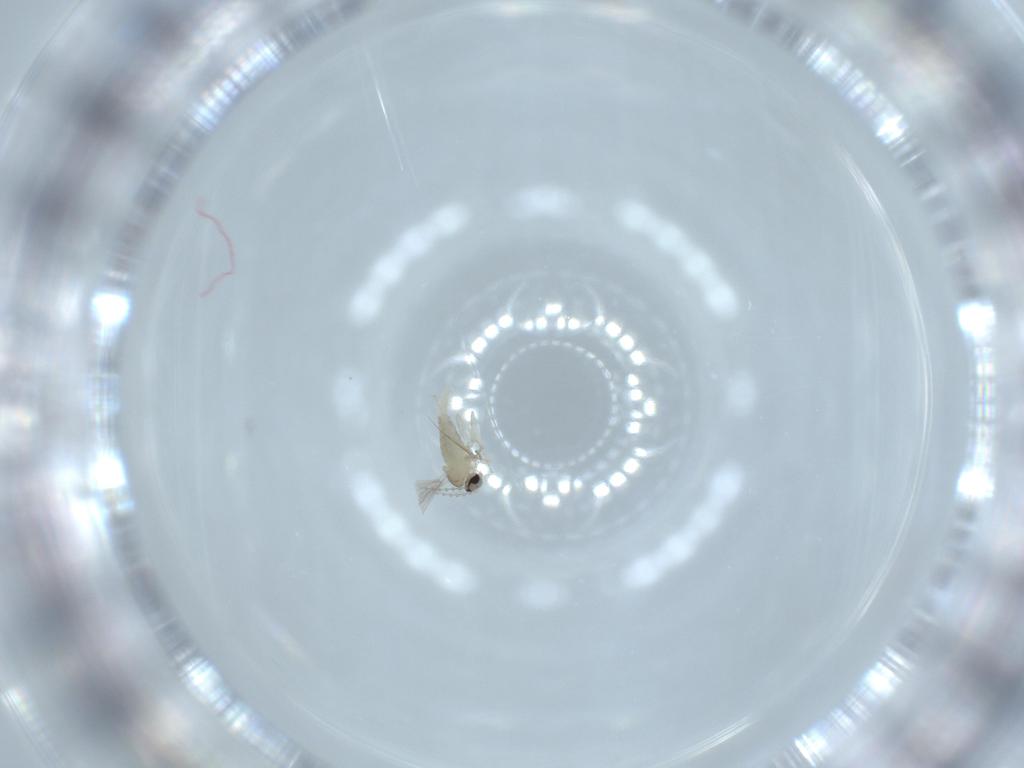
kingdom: Animalia
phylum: Arthropoda
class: Insecta
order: Diptera
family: Cecidomyiidae
